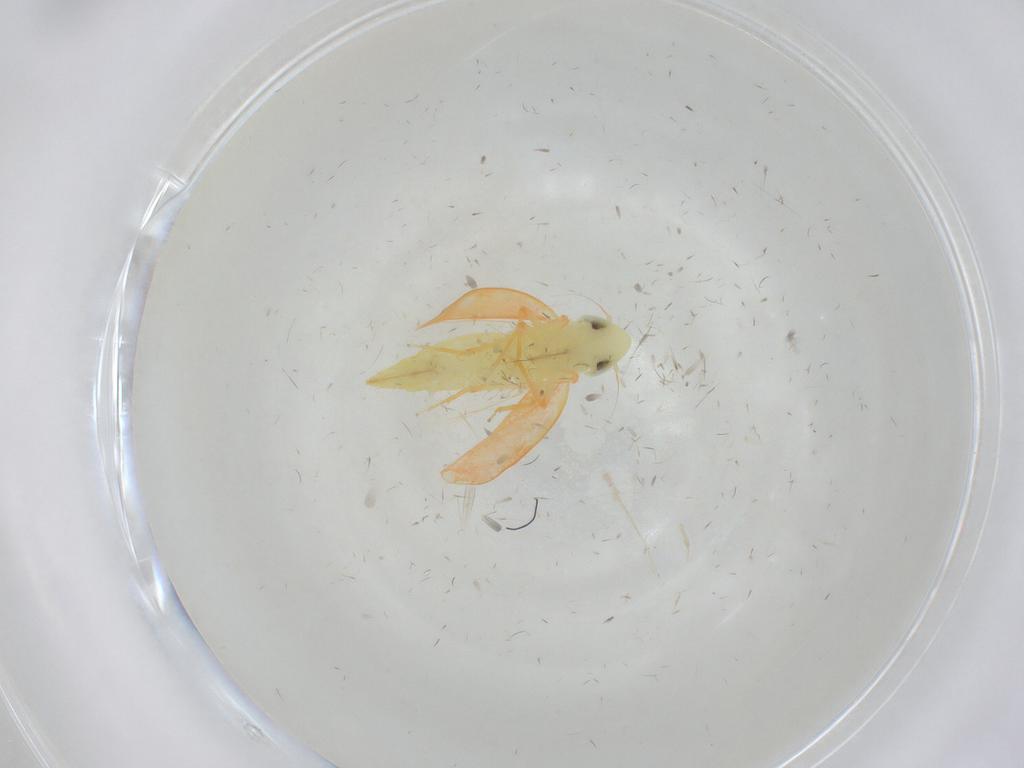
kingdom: Animalia
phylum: Arthropoda
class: Insecta
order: Hemiptera
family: Cicadellidae
